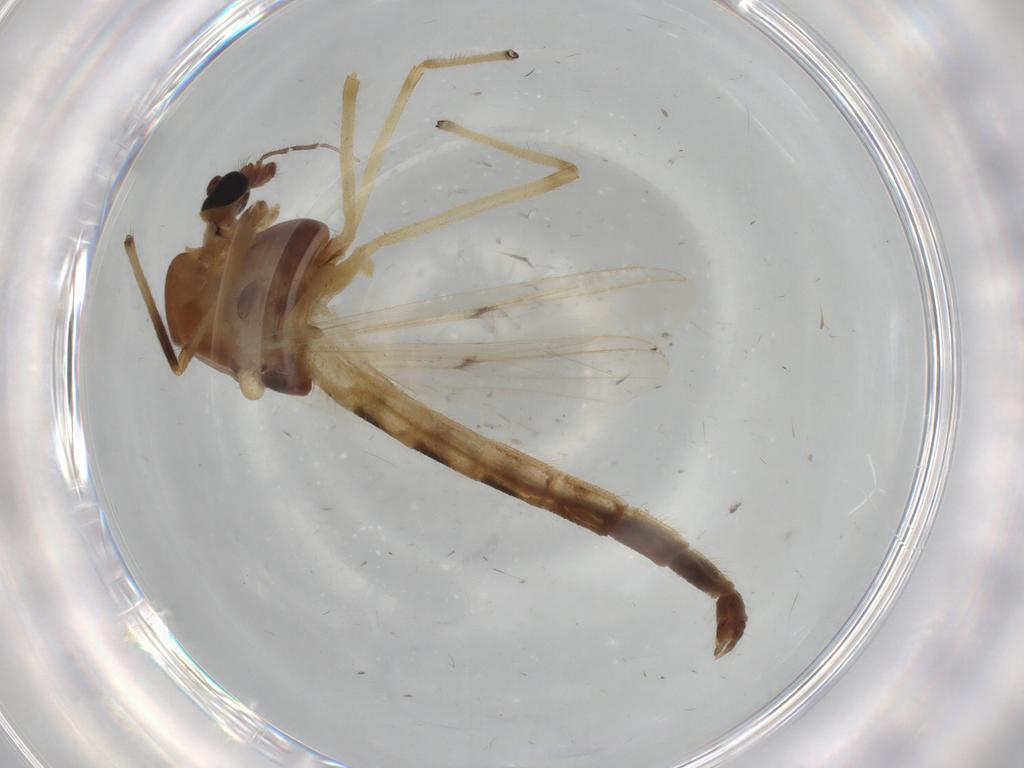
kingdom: Animalia
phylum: Arthropoda
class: Insecta
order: Diptera
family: Chironomidae
